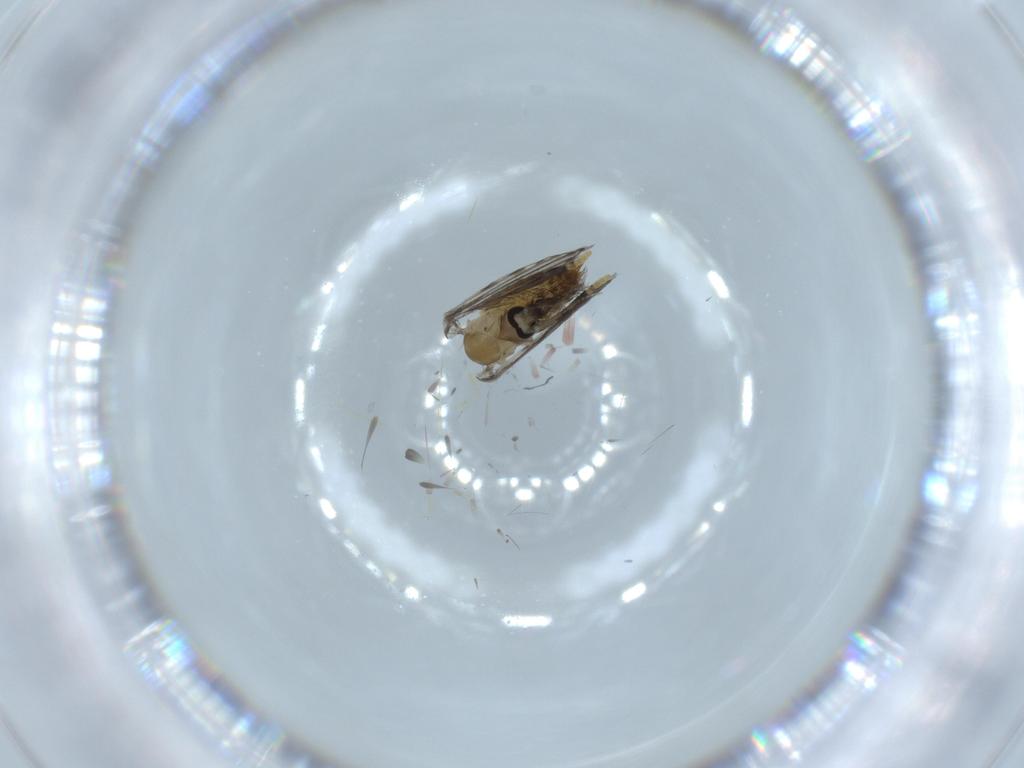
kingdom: Animalia
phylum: Arthropoda
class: Insecta
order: Diptera
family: Psychodidae
